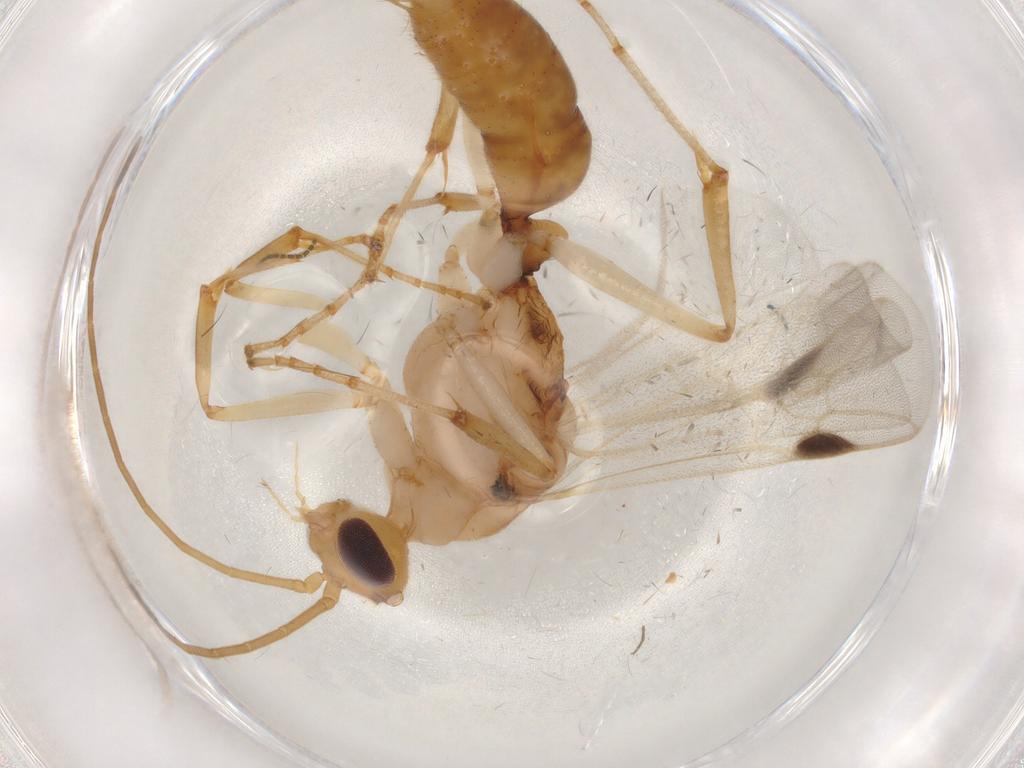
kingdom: Animalia
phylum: Arthropoda
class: Insecta
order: Hymenoptera
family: Formicidae
